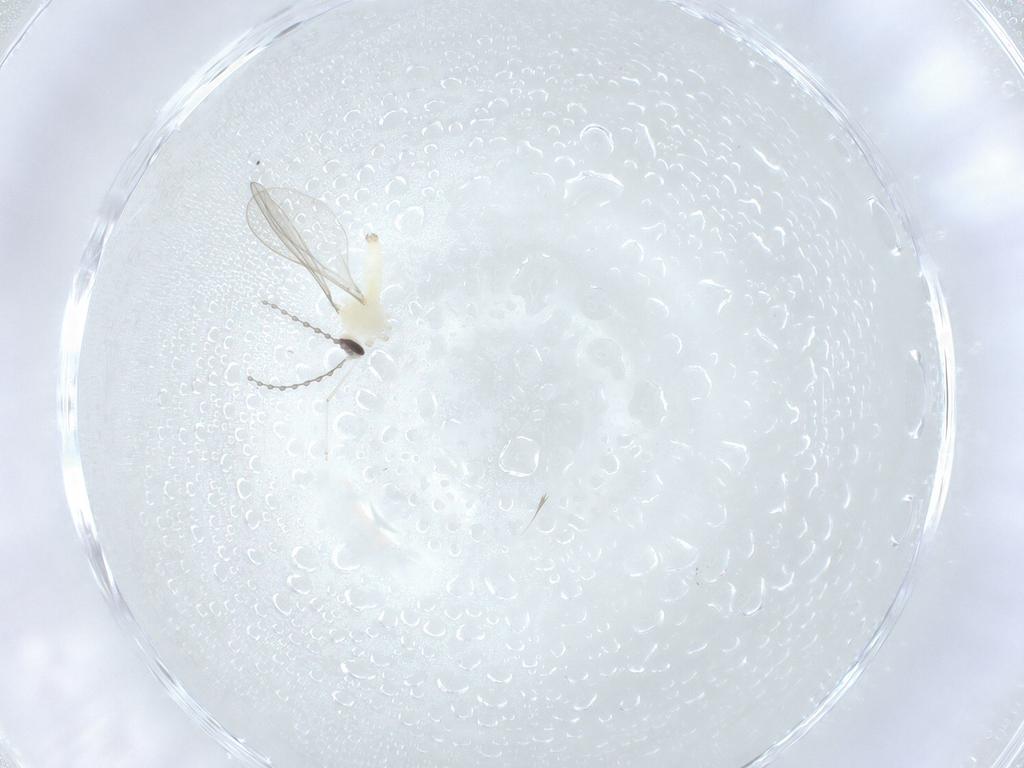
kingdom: Animalia
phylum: Arthropoda
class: Insecta
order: Diptera
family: Cecidomyiidae
